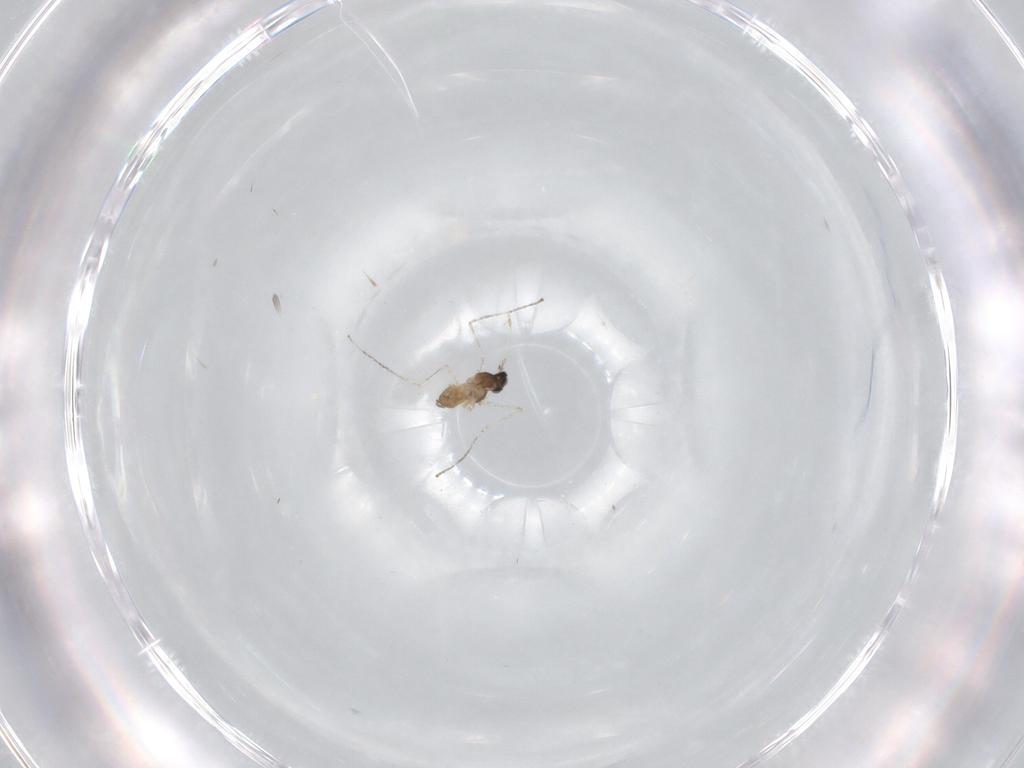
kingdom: Animalia
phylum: Arthropoda
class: Insecta
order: Diptera
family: Cecidomyiidae
